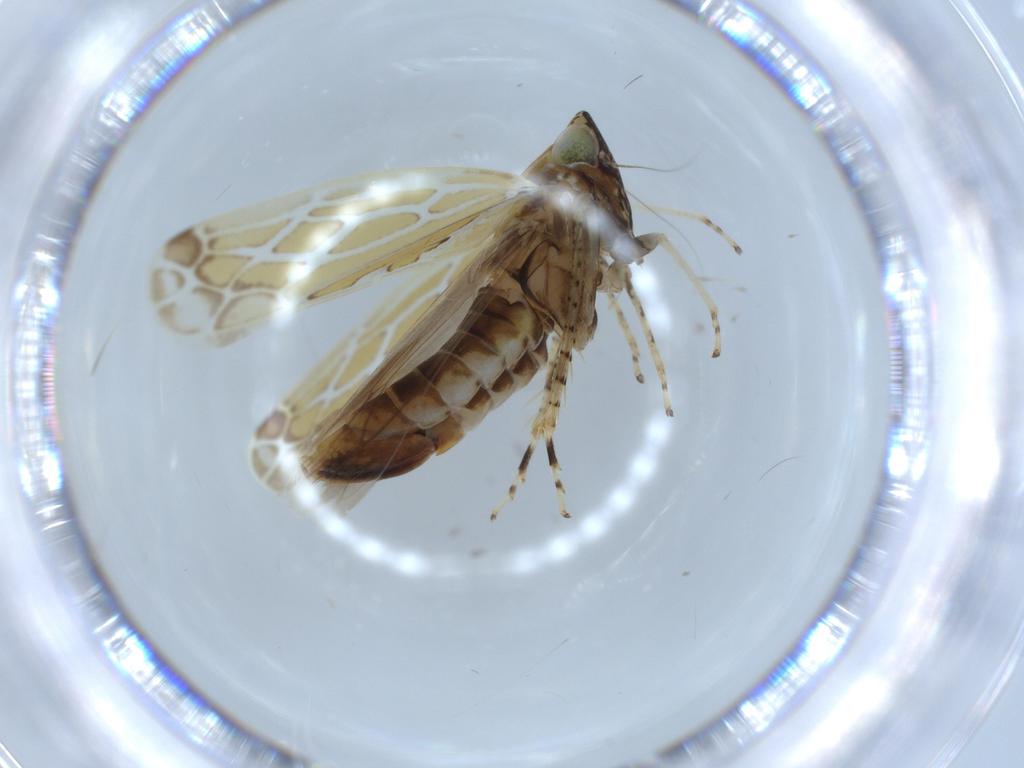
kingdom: Animalia
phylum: Arthropoda
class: Insecta
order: Hemiptera
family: Cicadellidae
